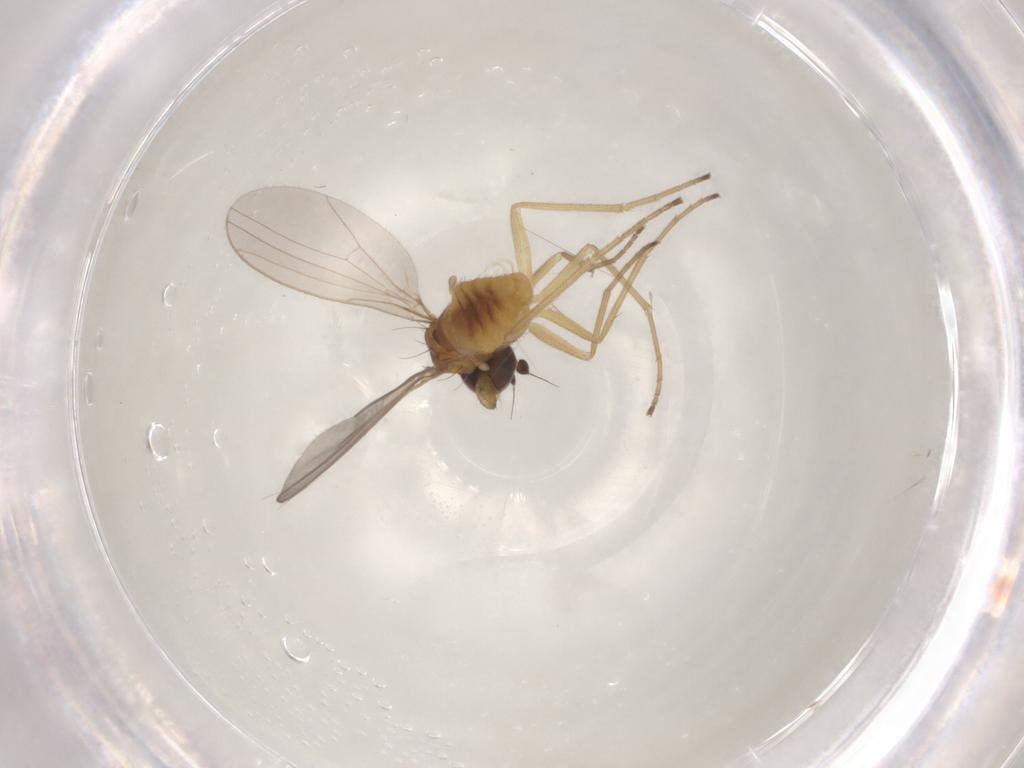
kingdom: Animalia
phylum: Arthropoda
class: Insecta
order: Diptera
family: Dolichopodidae
